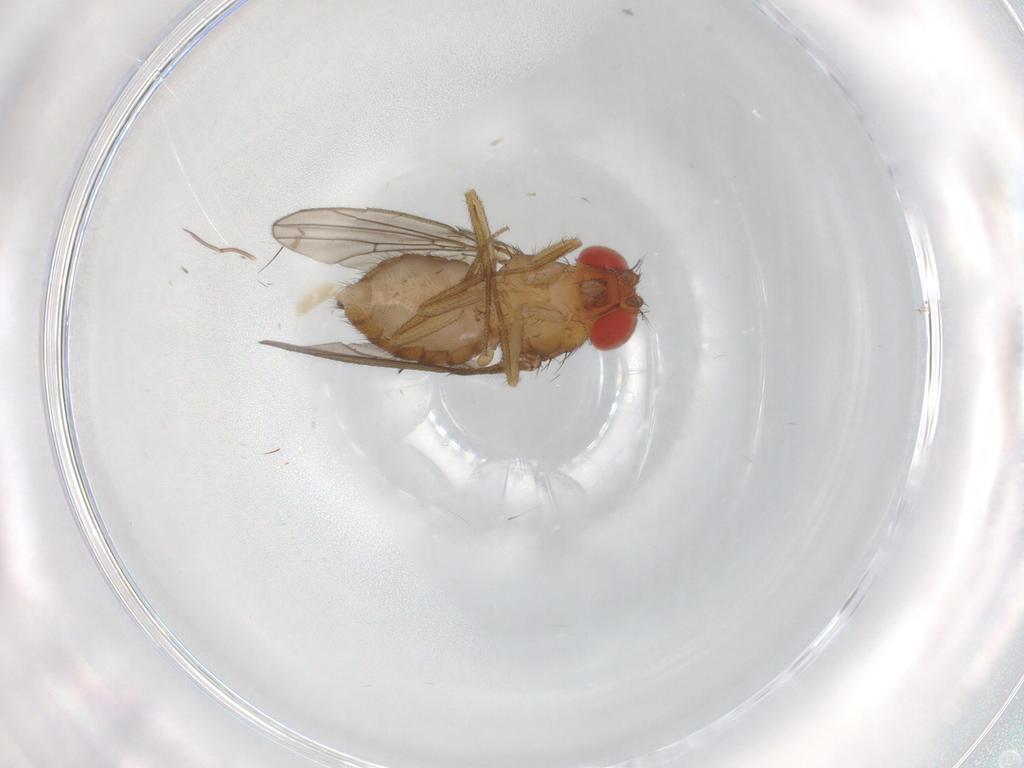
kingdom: Animalia
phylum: Arthropoda
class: Insecta
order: Diptera
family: Drosophilidae
